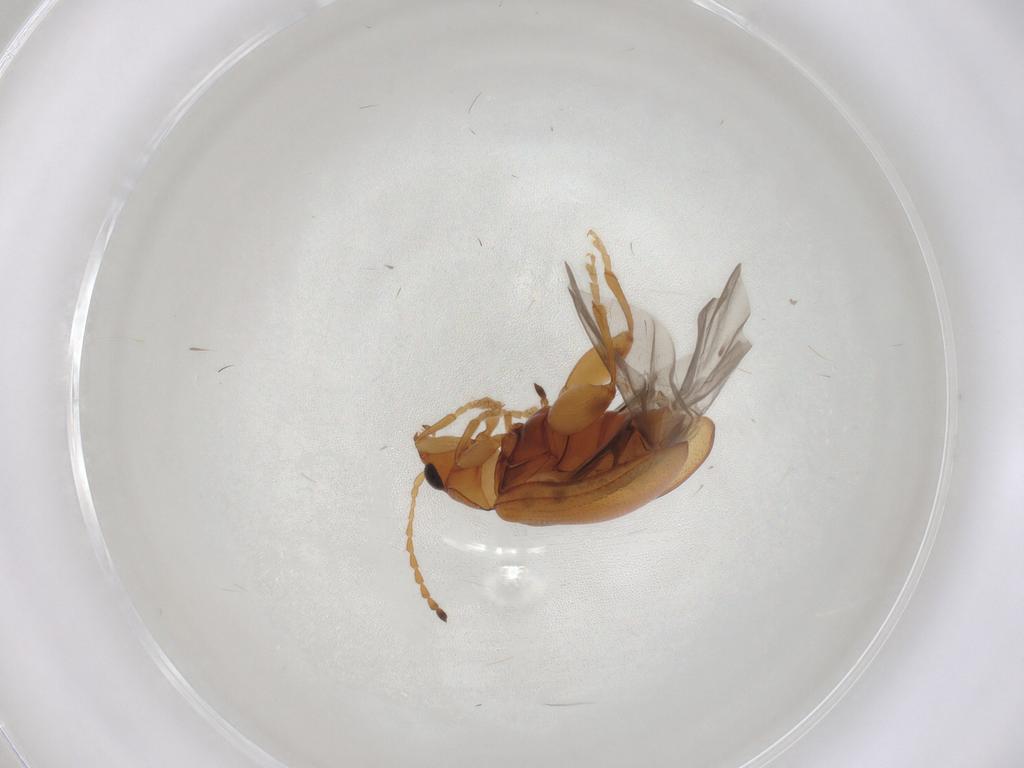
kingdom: Animalia
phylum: Arthropoda
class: Insecta
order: Coleoptera
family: Chrysomelidae
